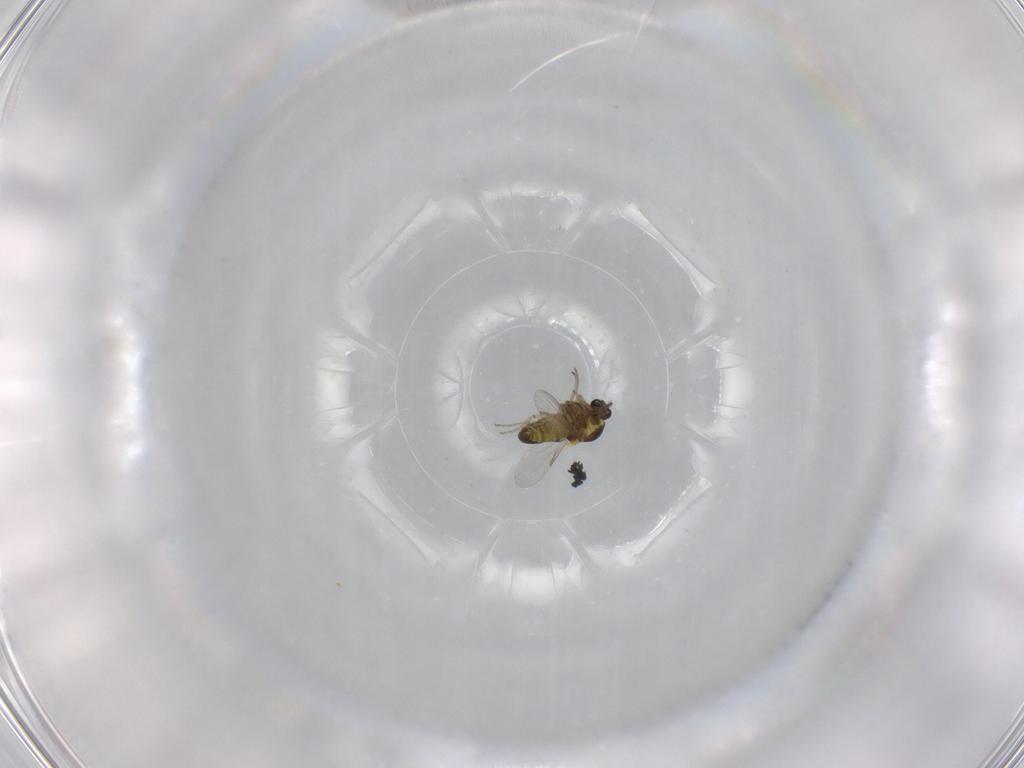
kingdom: Animalia
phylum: Arthropoda
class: Insecta
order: Diptera
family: Ceratopogonidae
